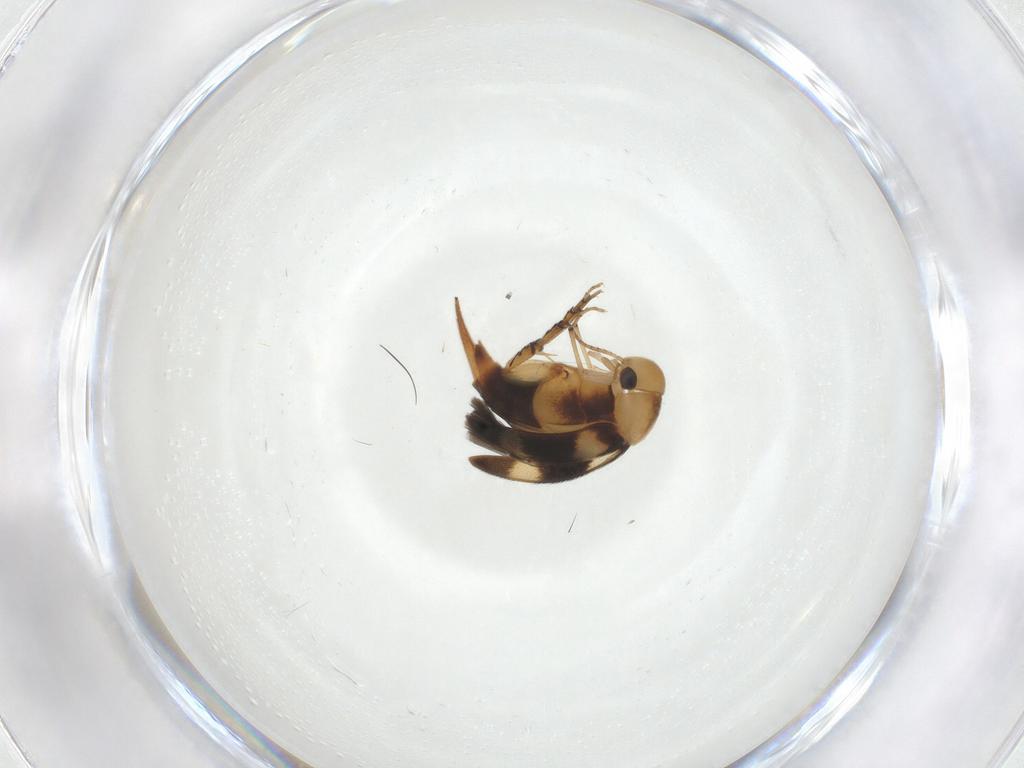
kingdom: Animalia
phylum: Arthropoda
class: Insecta
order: Coleoptera
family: Mordellidae
